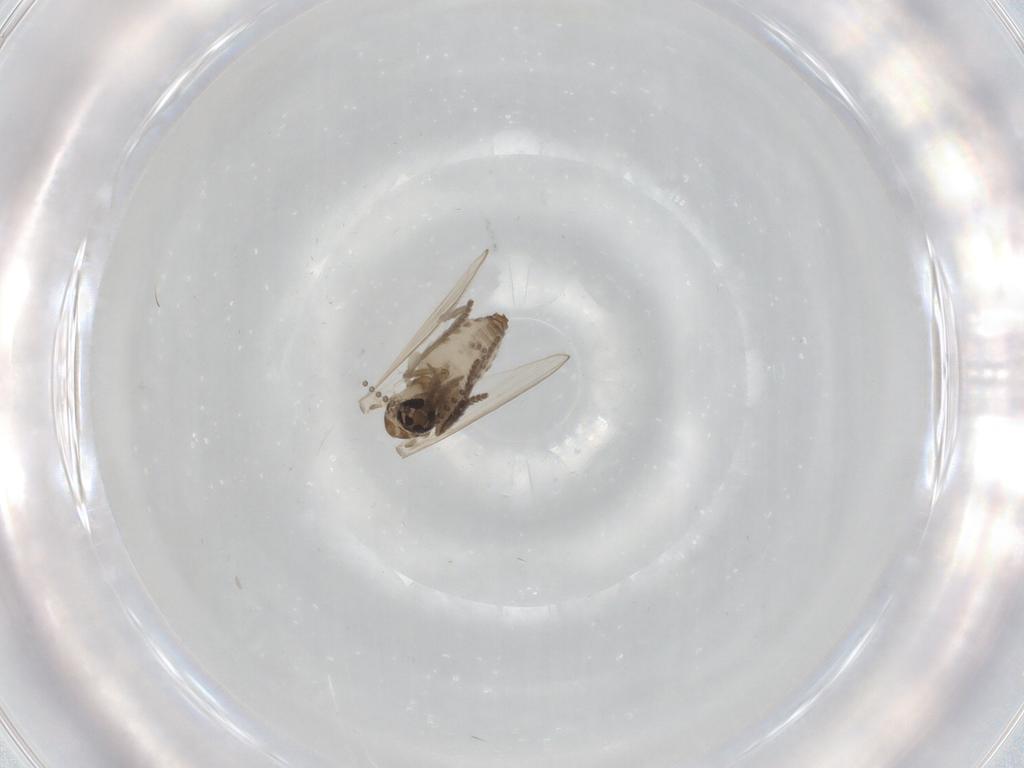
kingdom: Animalia
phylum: Arthropoda
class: Insecta
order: Diptera
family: Psychodidae
